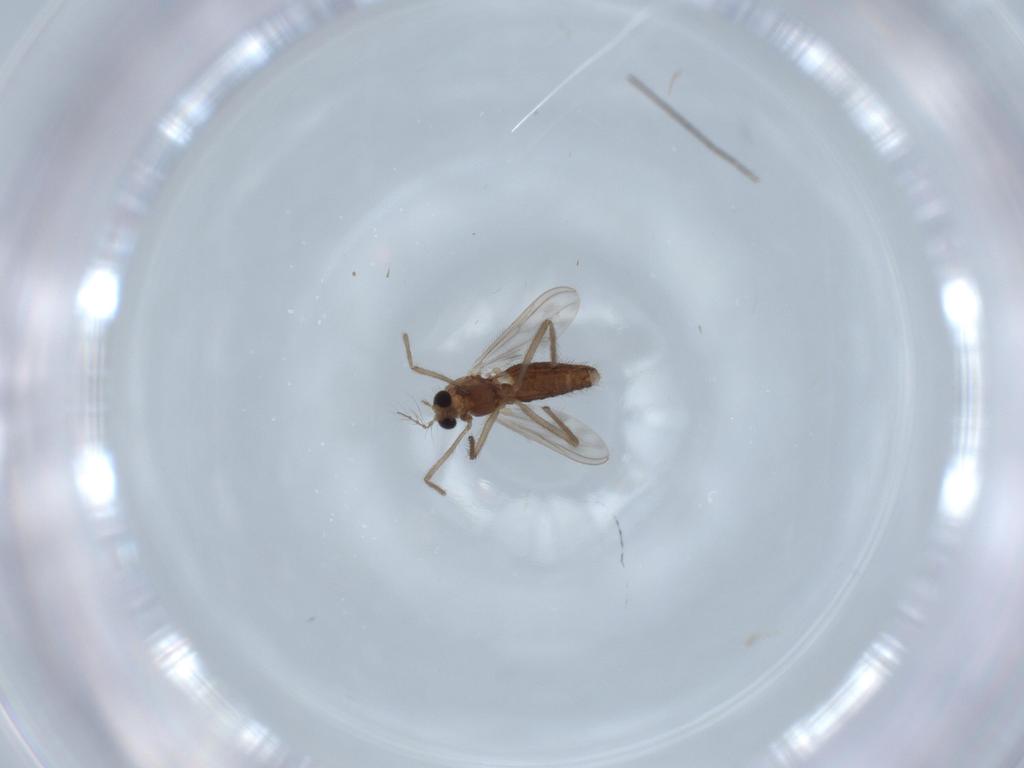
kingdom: Animalia
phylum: Arthropoda
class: Insecta
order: Diptera
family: Chironomidae
